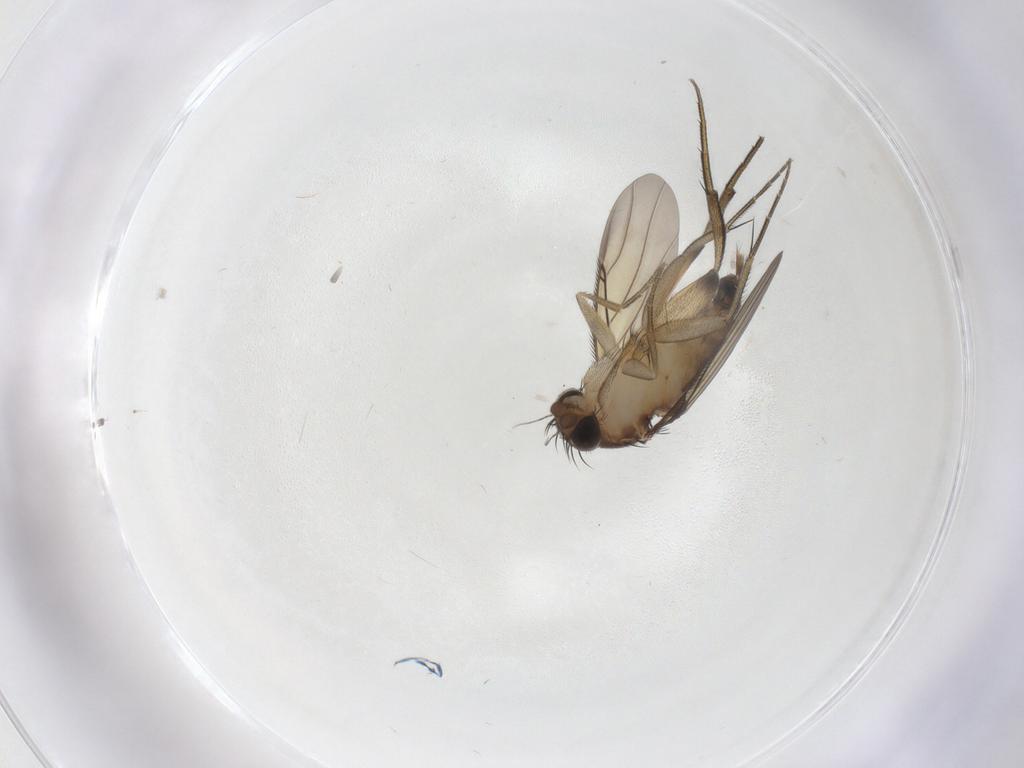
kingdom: Animalia
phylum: Arthropoda
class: Insecta
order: Diptera
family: Phoridae
